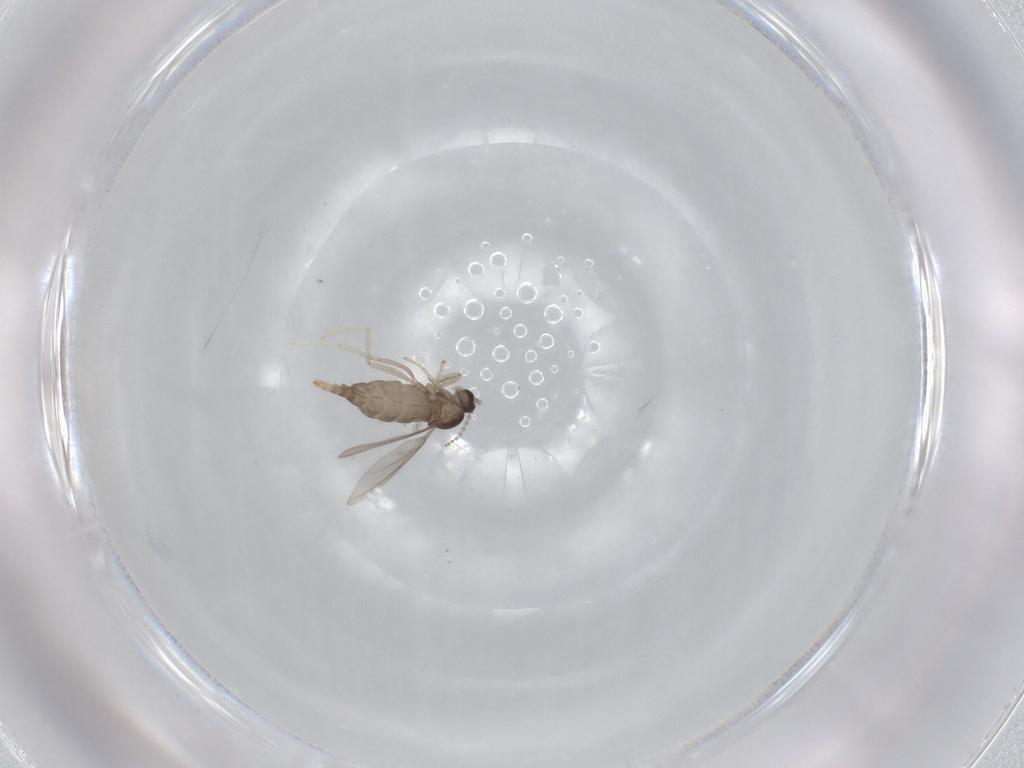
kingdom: Animalia
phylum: Arthropoda
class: Insecta
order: Diptera
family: Cecidomyiidae
